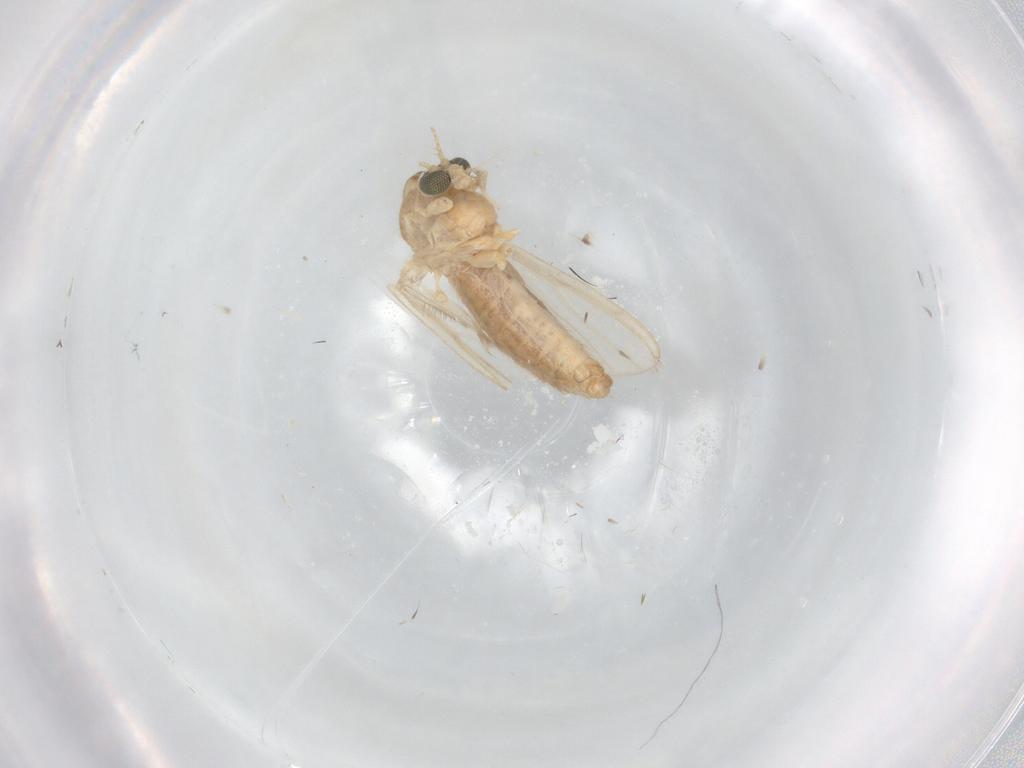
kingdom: Animalia
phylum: Arthropoda
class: Insecta
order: Diptera
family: Chironomidae
